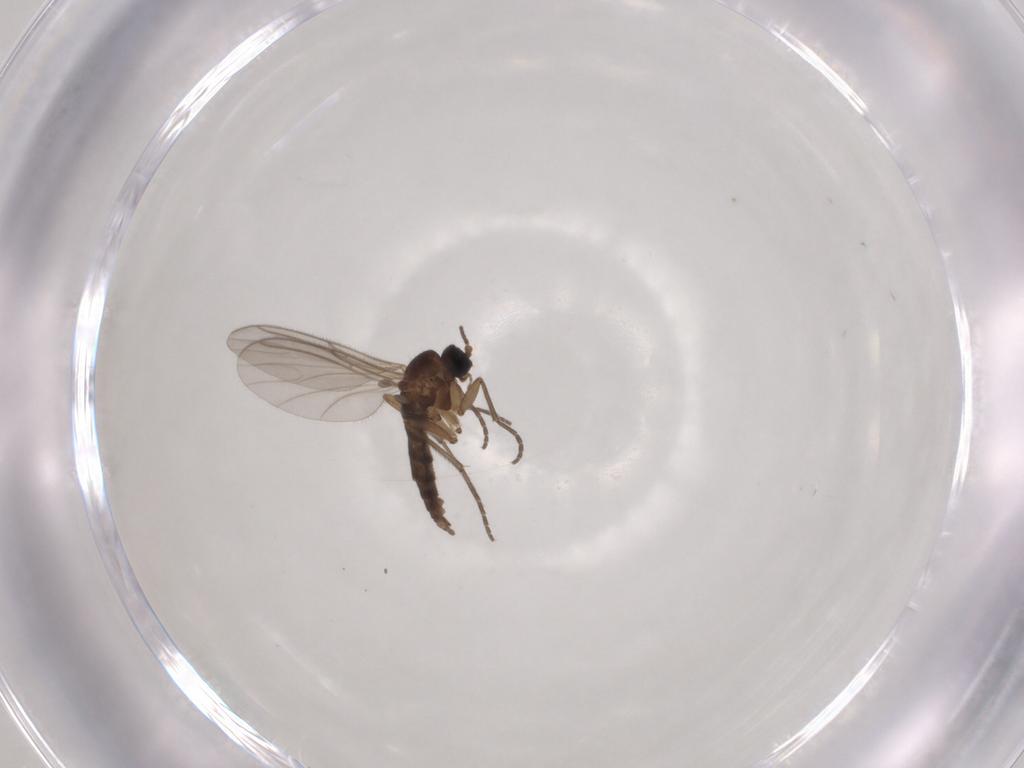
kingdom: Animalia
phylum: Arthropoda
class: Insecta
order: Diptera
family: Sciaridae
